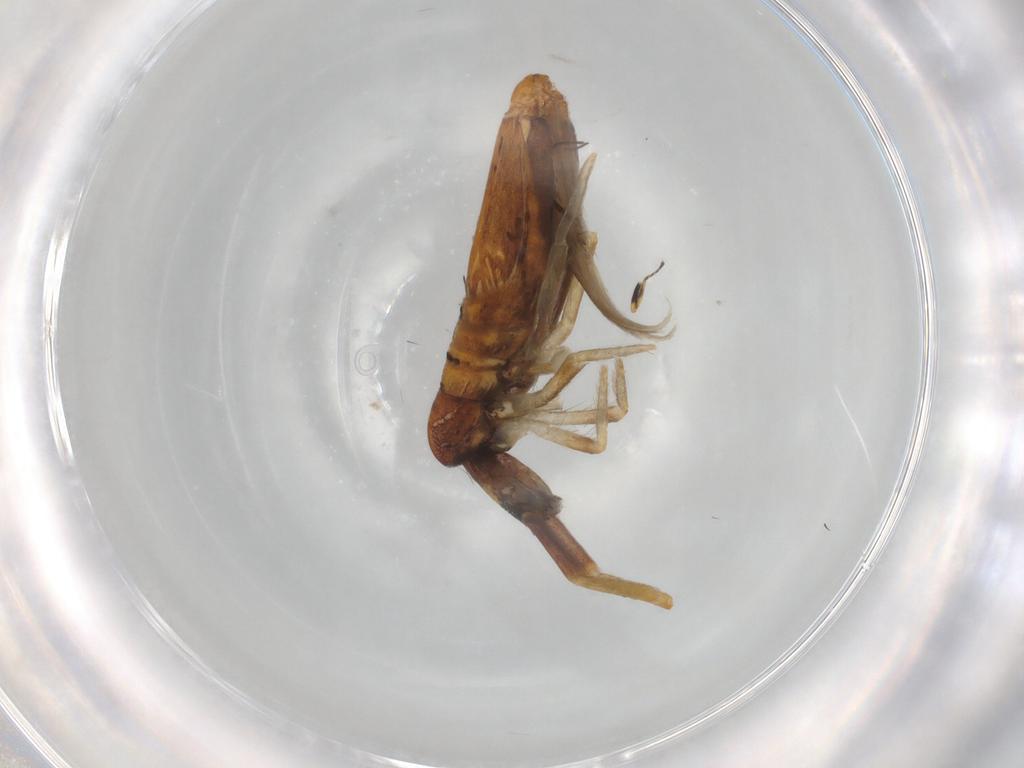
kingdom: Animalia
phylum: Arthropoda
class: Collembola
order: Entomobryomorpha
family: Entomobryidae
